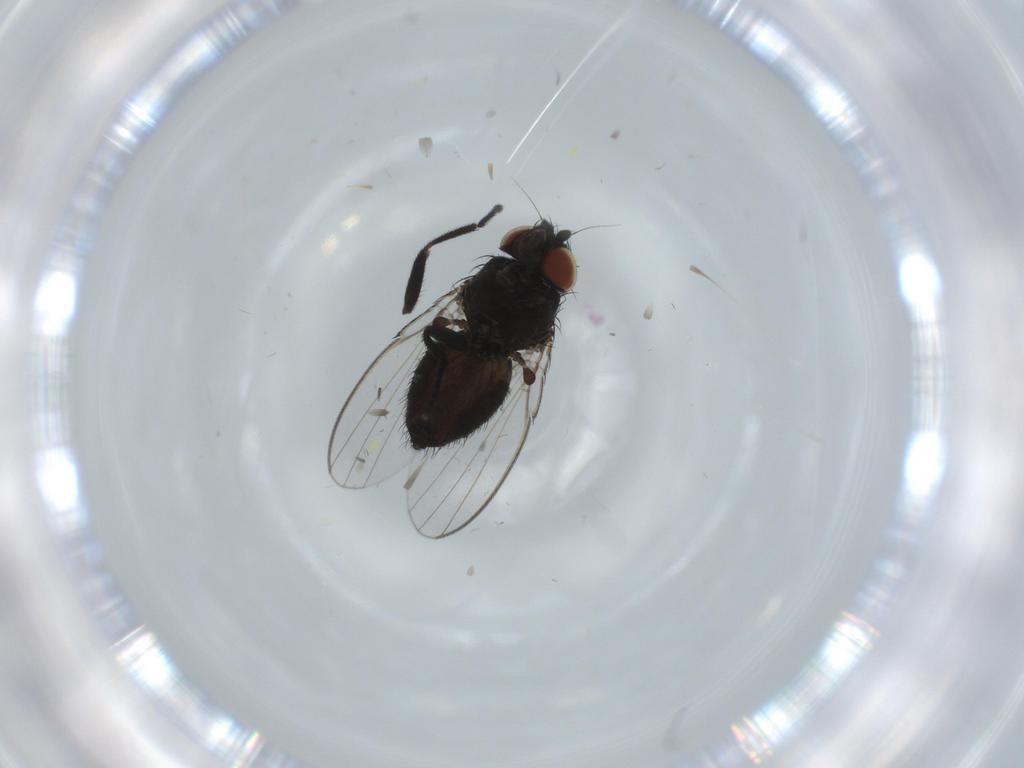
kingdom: Animalia
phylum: Arthropoda
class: Insecta
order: Diptera
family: Milichiidae
